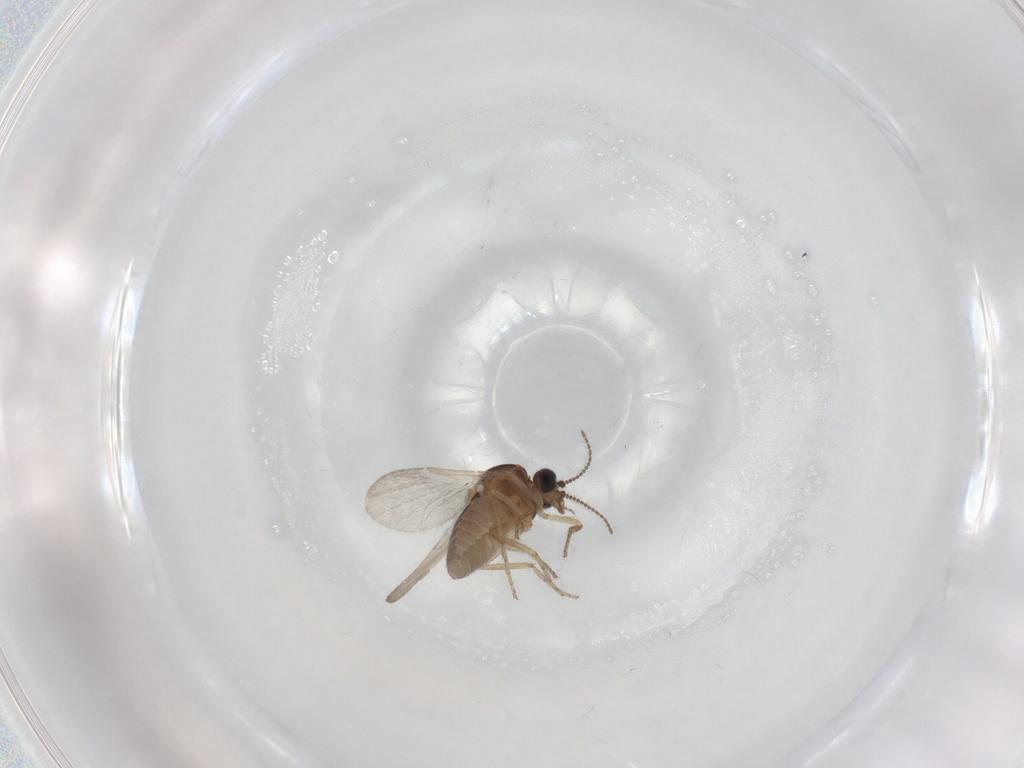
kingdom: Animalia
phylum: Arthropoda
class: Insecta
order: Diptera
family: Ceratopogonidae
